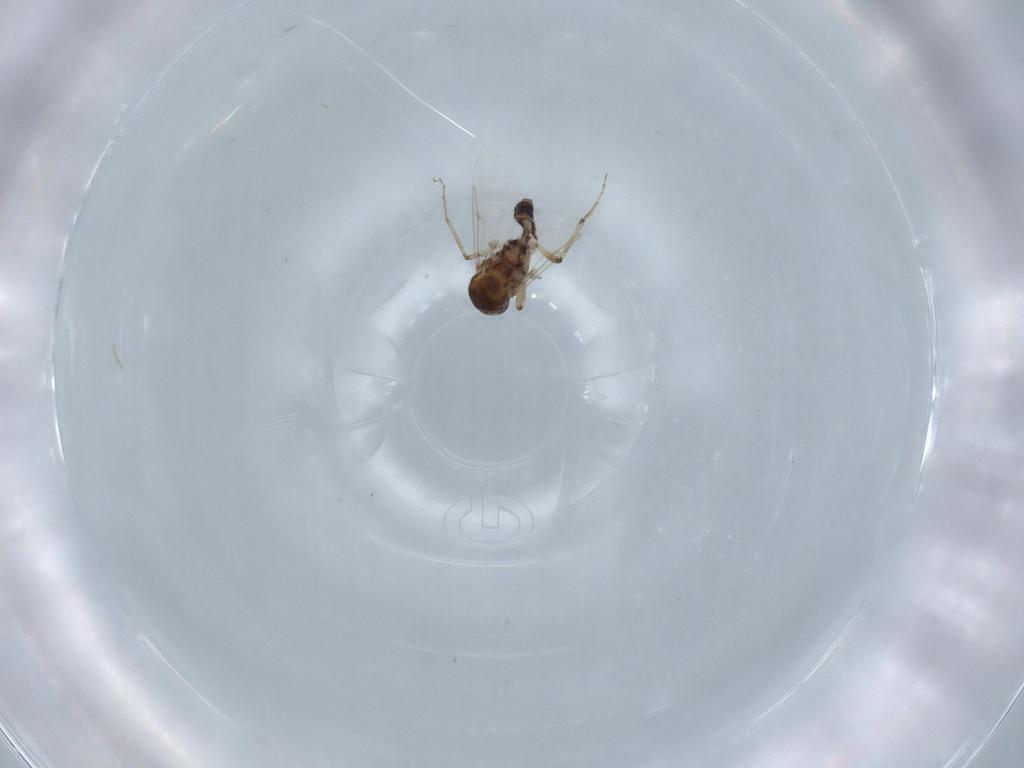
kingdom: Animalia
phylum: Arthropoda
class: Insecta
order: Diptera
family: Ceratopogonidae
